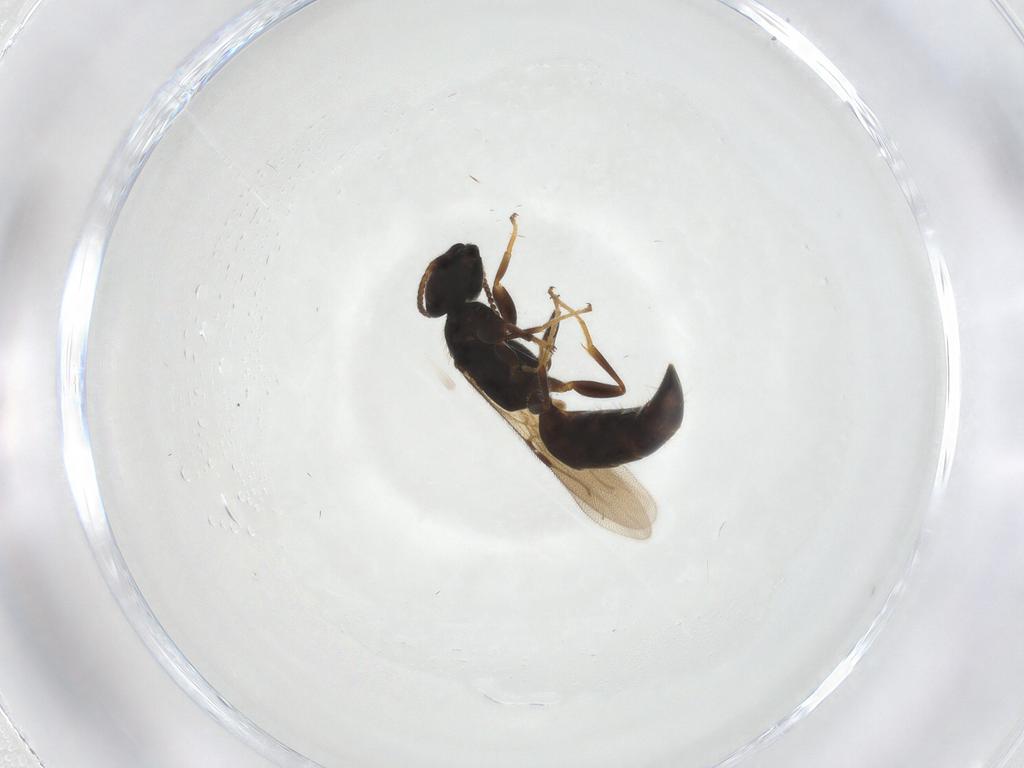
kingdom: Animalia
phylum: Arthropoda
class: Insecta
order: Hymenoptera
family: Bethylidae
